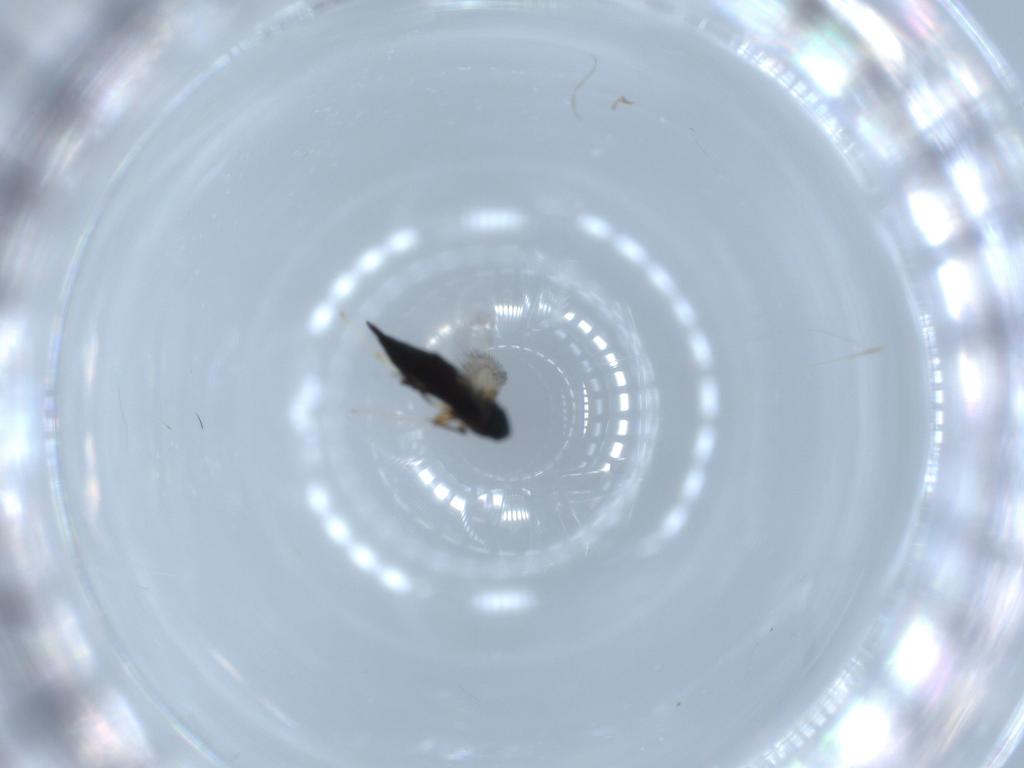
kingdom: Animalia
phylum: Arthropoda
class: Insecta
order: Hymenoptera
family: Signiphoridae
